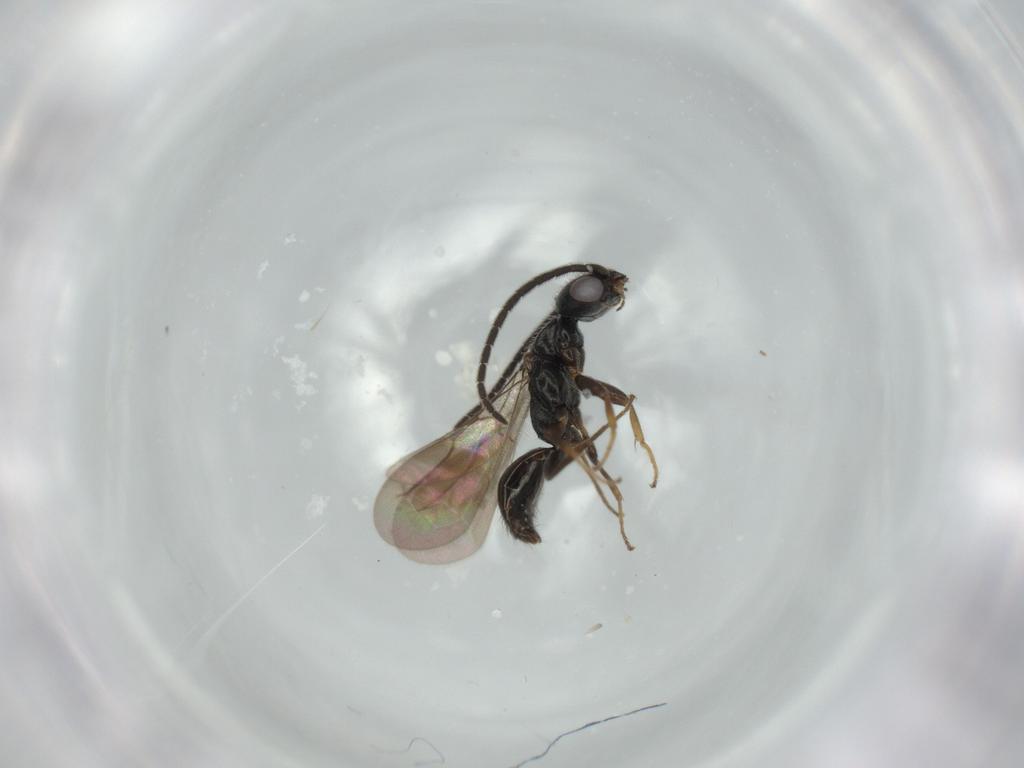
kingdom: Animalia
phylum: Arthropoda
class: Insecta
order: Hymenoptera
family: Bethylidae
